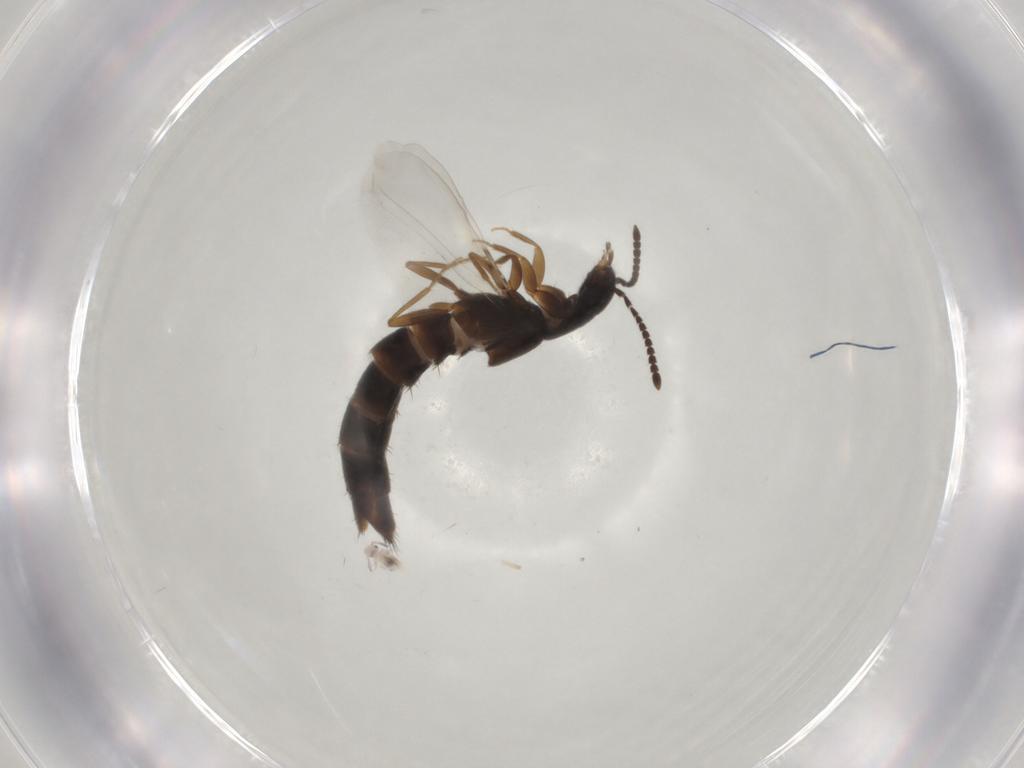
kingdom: Animalia
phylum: Arthropoda
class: Insecta
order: Coleoptera
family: Staphylinidae
